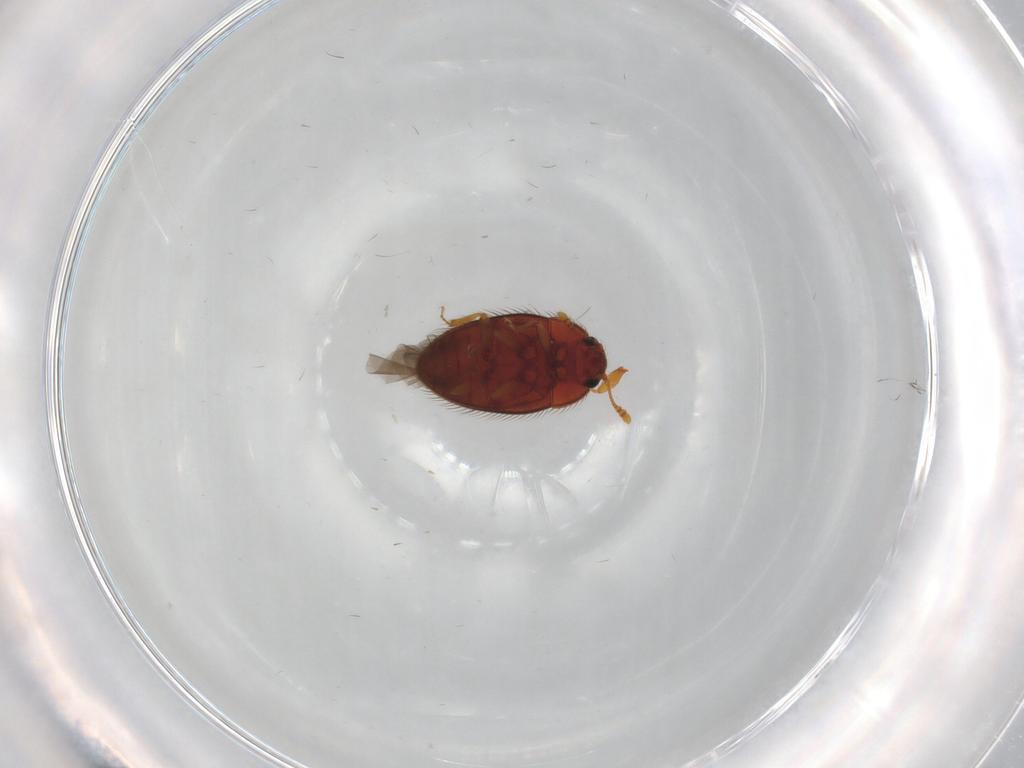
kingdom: Animalia
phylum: Arthropoda
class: Insecta
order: Coleoptera
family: Biphyllidae
